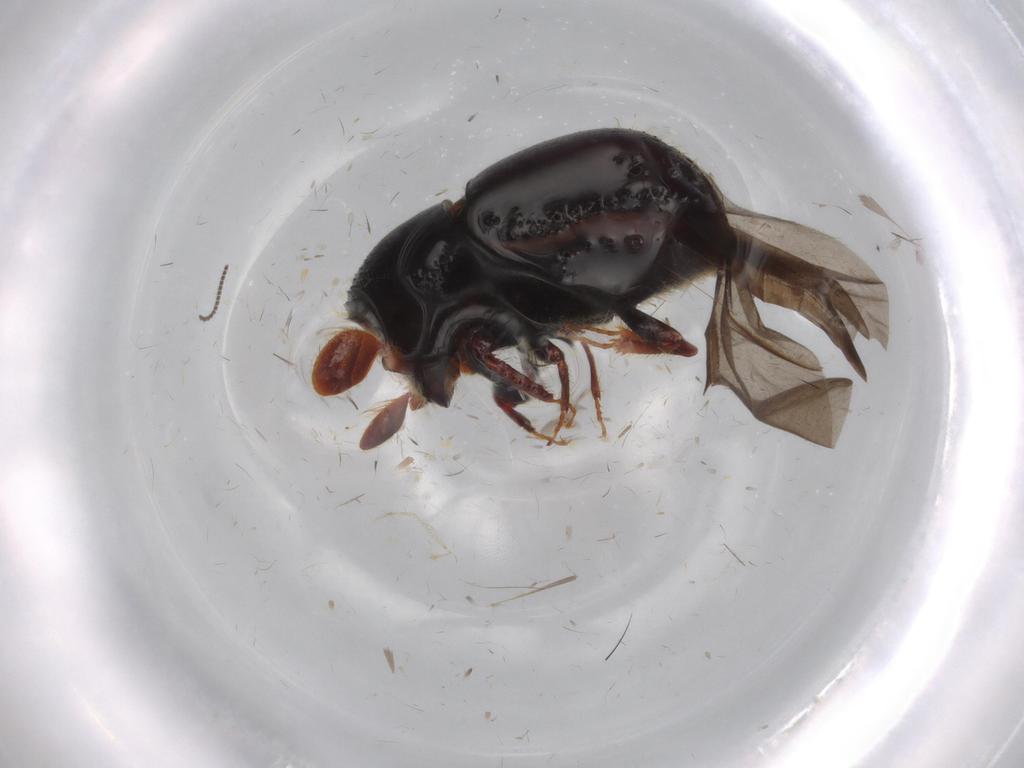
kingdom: Animalia
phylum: Arthropoda
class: Insecta
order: Coleoptera
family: Curculionidae
